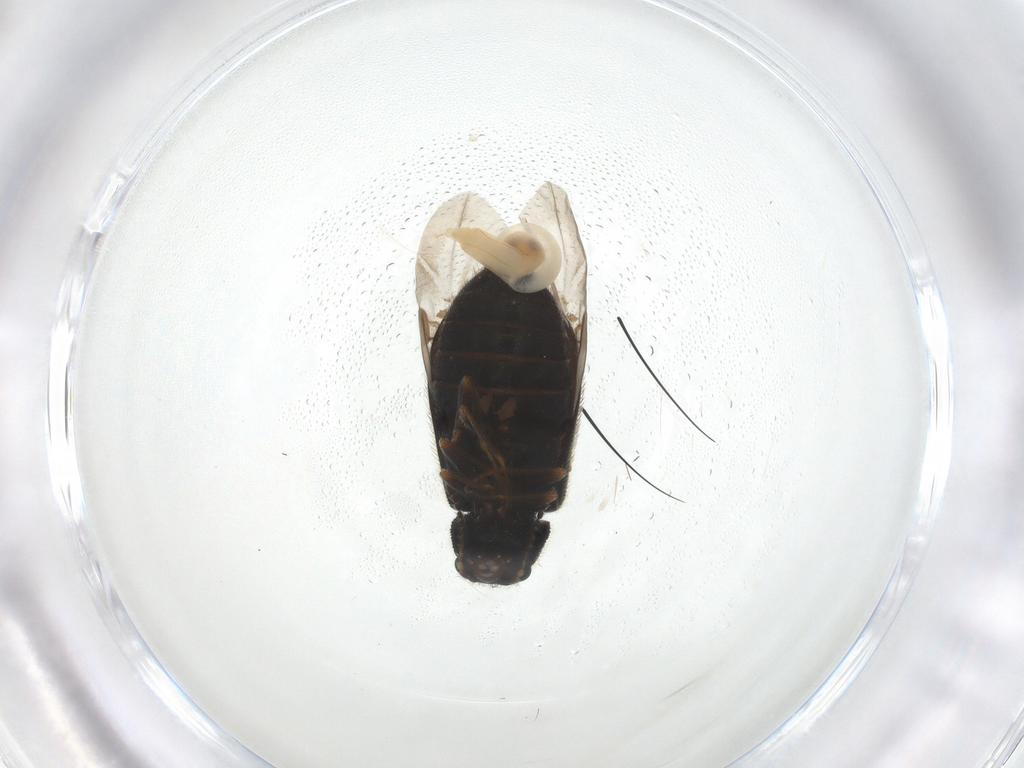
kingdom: Animalia
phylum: Arthropoda
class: Insecta
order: Coleoptera
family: Melyridae
